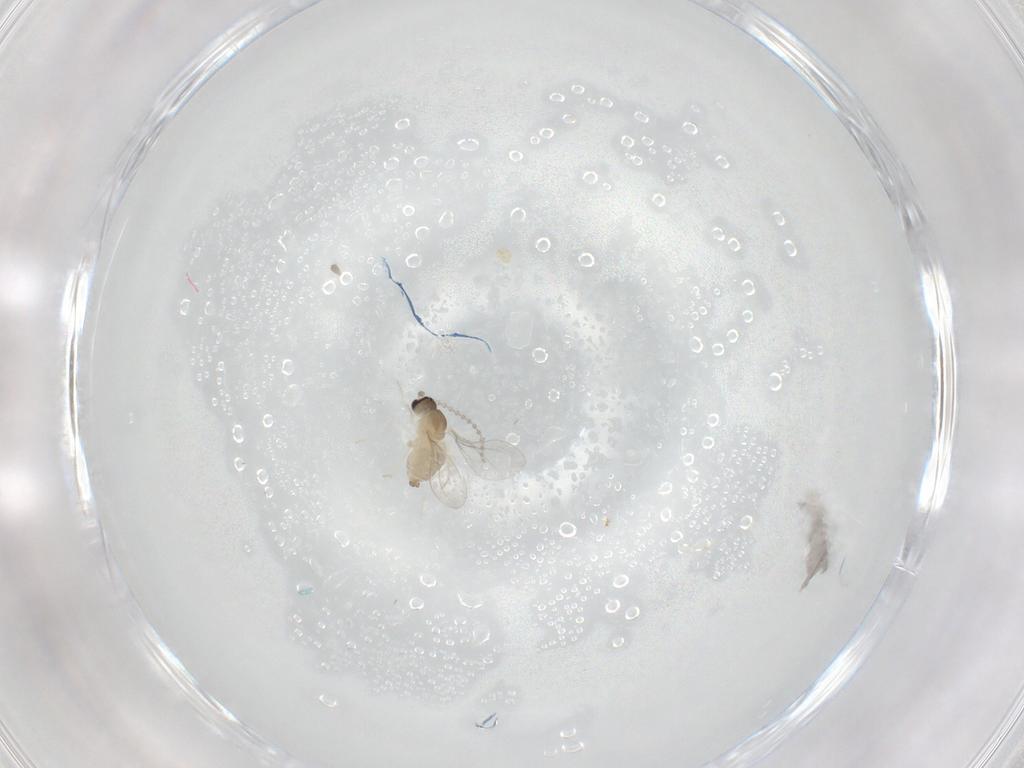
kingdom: Animalia
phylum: Arthropoda
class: Insecta
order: Diptera
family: Cecidomyiidae
